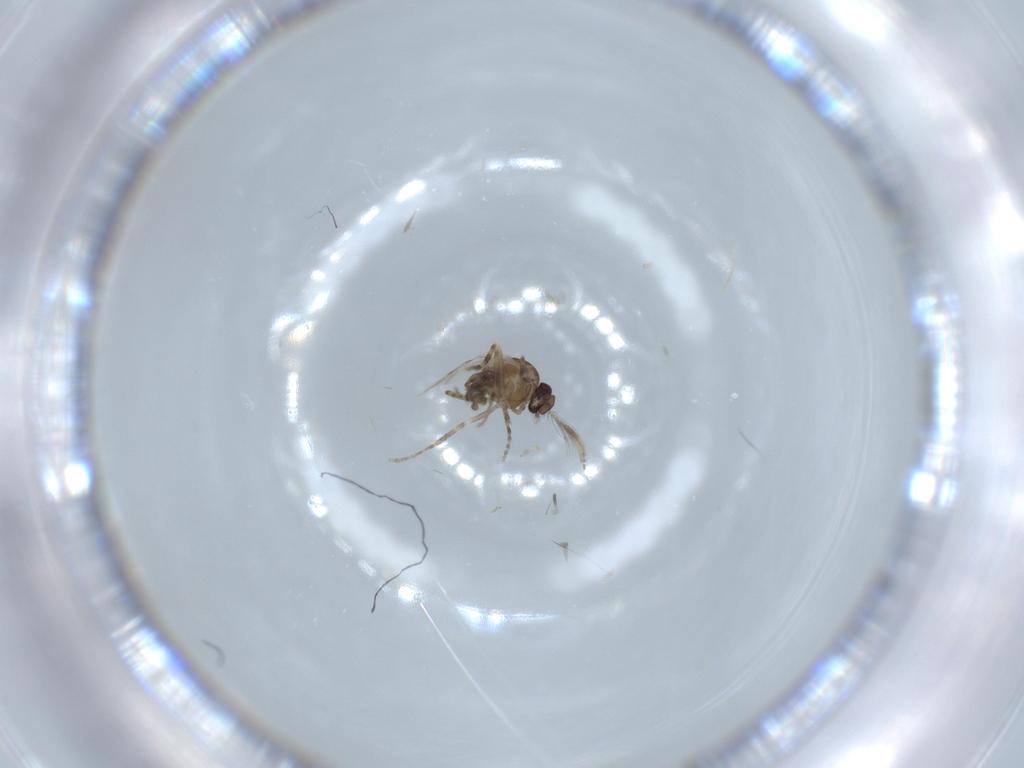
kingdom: Animalia
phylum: Arthropoda
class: Insecta
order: Diptera
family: Ceratopogonidae
